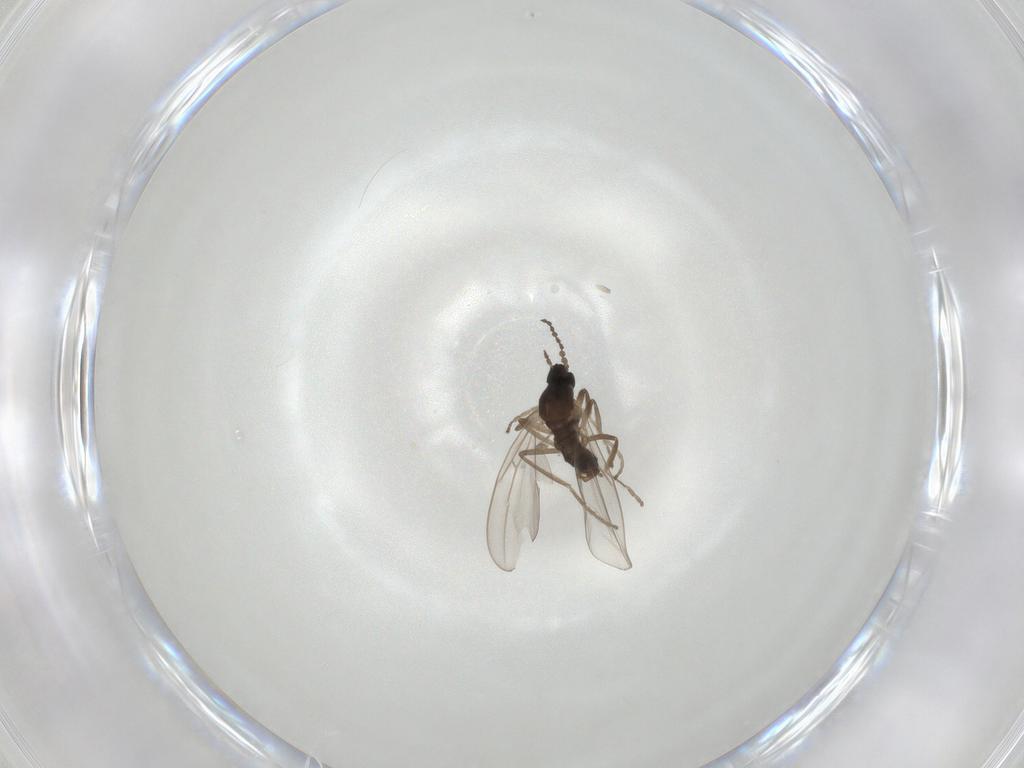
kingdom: Animalia
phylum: Arthropoda
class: Insecta
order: Diptera
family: Cecidomyiidae
